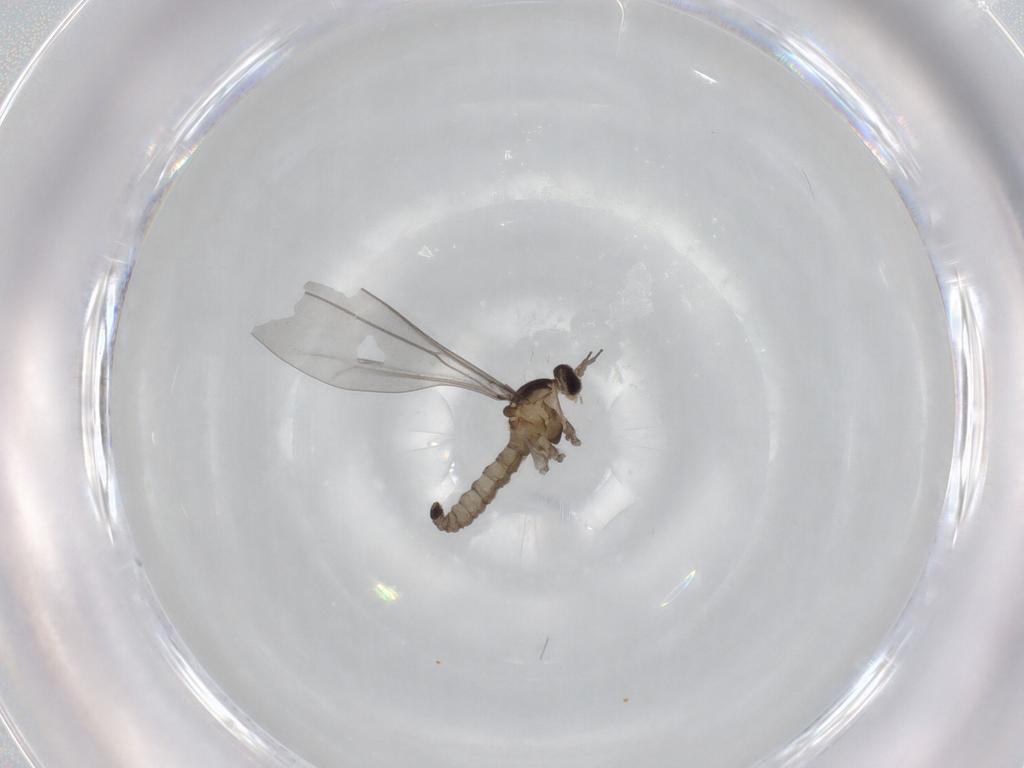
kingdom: Animalia
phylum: Arthropoda
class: Insecta
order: Diptera
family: Cecidomyiidae
